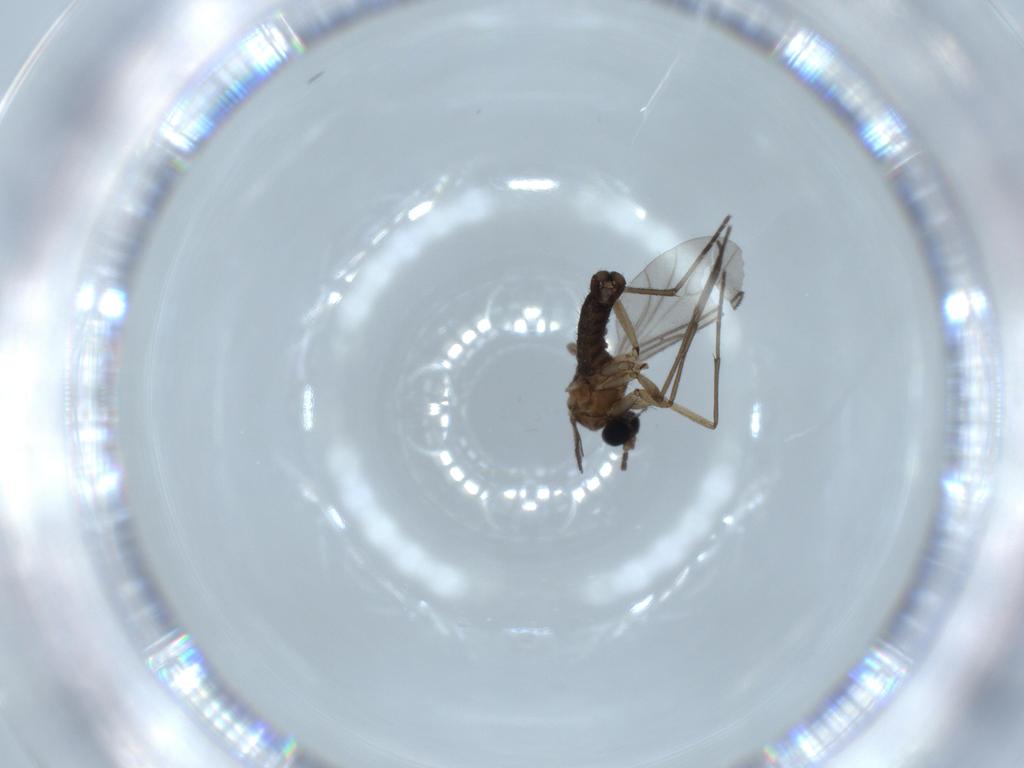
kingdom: Animalia
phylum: Arthropoda
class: Insecta
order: Diptera
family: Sciaridae
